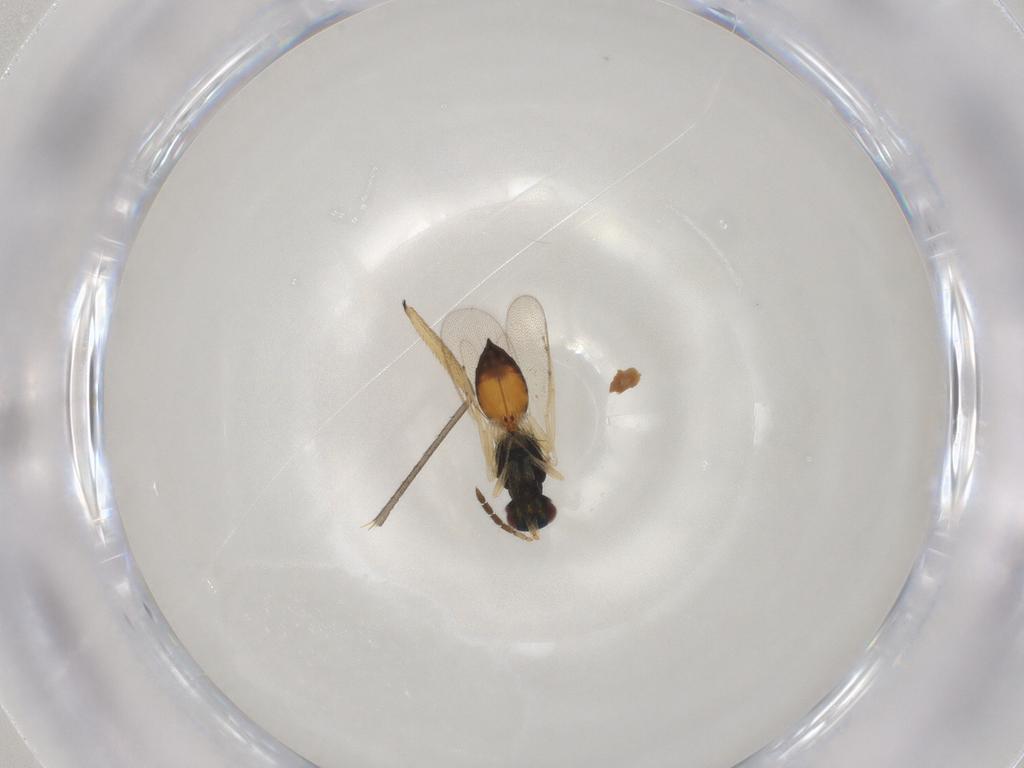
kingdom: Animalia
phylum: Arthropoda
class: Insecta
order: Hymenoptera
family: Eulophidae
